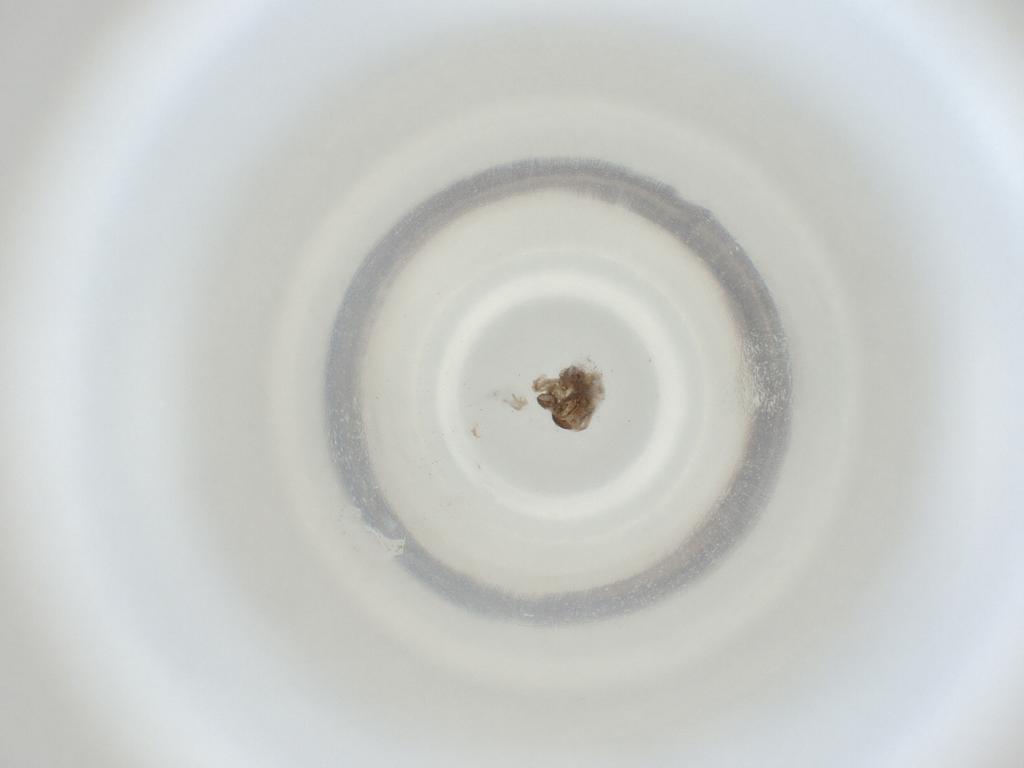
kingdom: Animalia
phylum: Arthropoda
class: Insecta
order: Diptera
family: Cecidomyiidae
